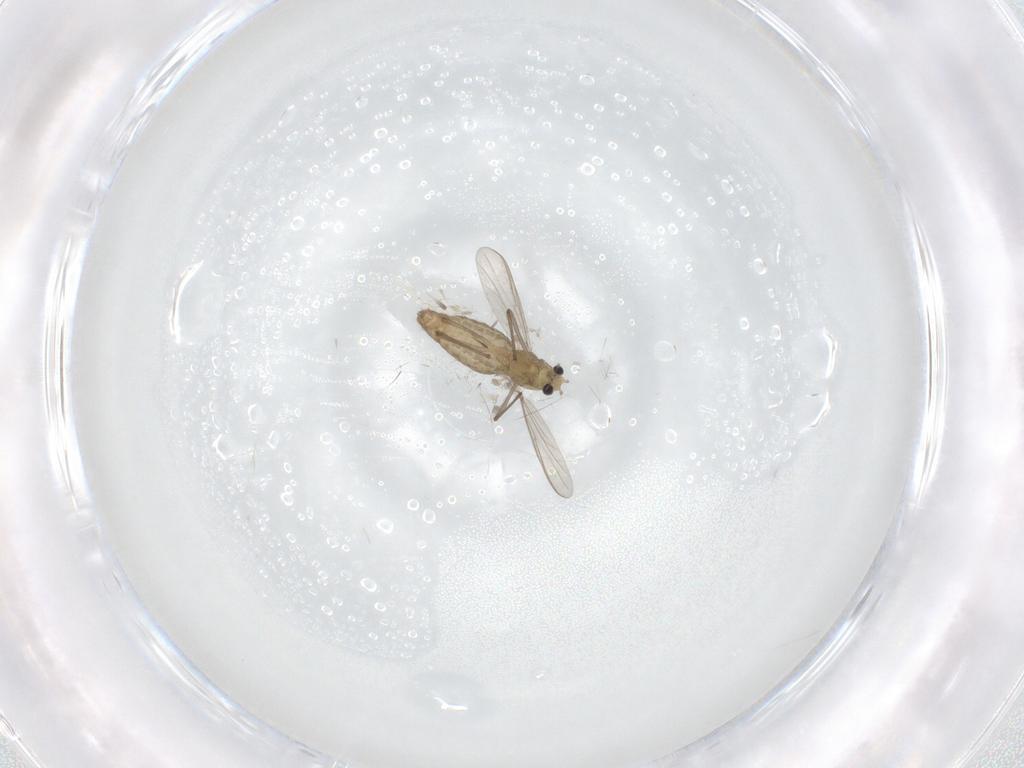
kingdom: Animalia
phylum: Arthropoda
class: Insecta
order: Diptera
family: Chironomidae
